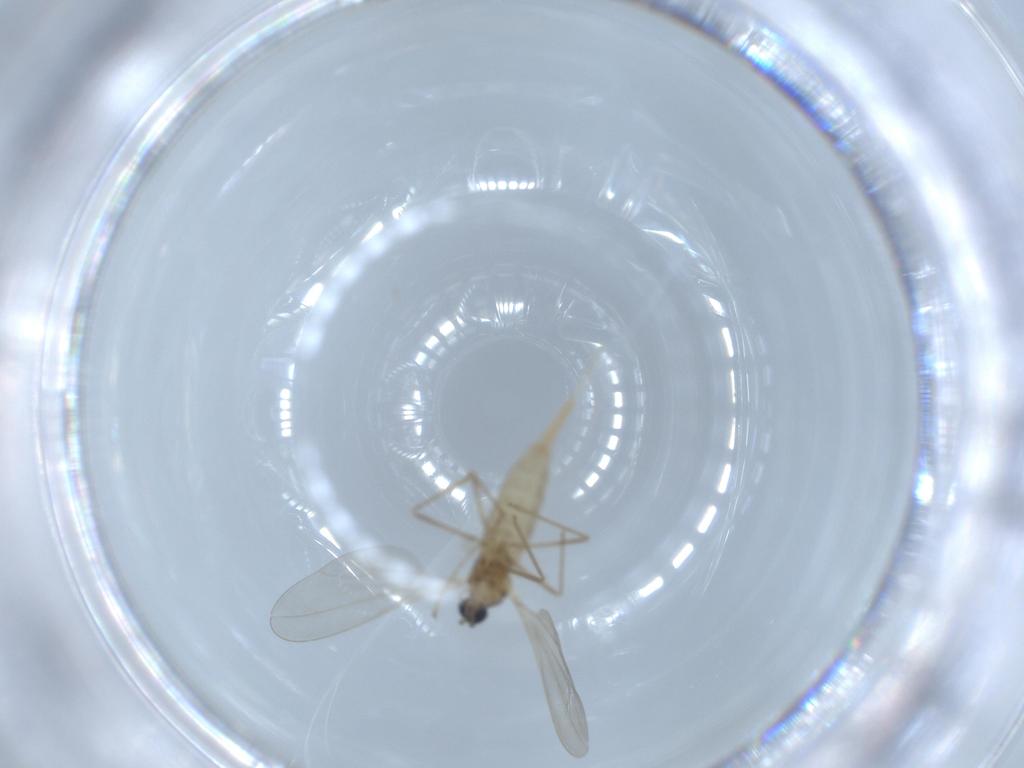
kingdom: Animalia
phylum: Arthropoda
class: Insecta
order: Diptera
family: Cecidomyiidae
